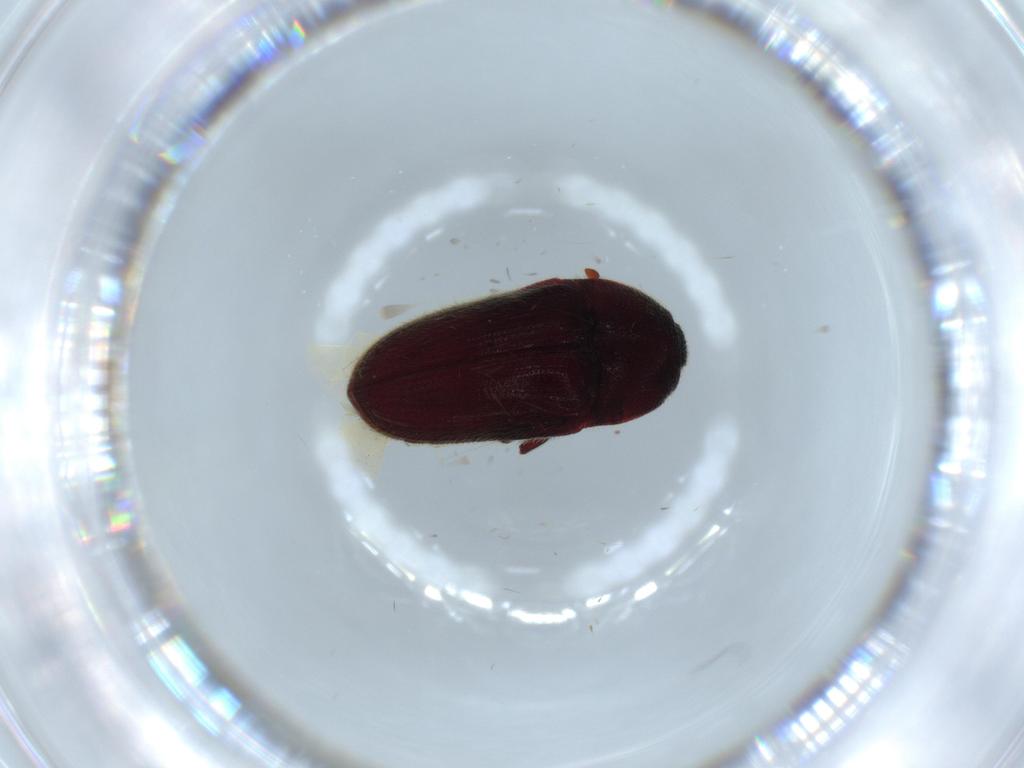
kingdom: Animalia
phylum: Arthropoda
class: Insecta
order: Coleoptera
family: Throscidae
